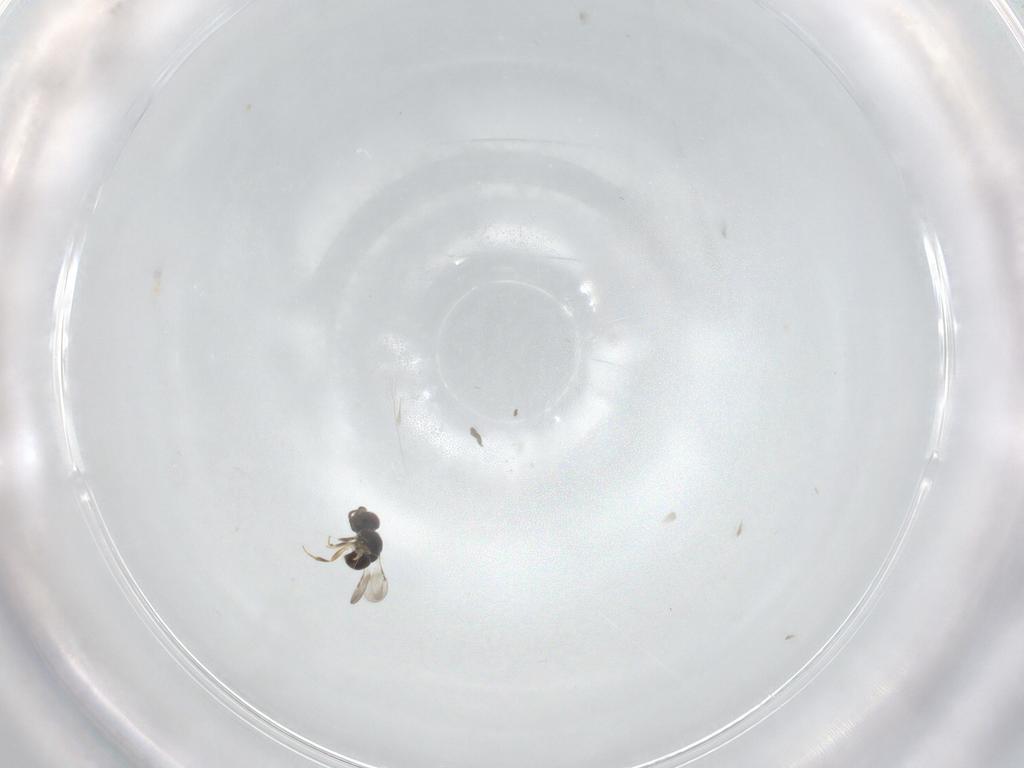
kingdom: Animalia
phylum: Arthropoda
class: Insecta
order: Hymenoptera
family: Ceraphronidae
